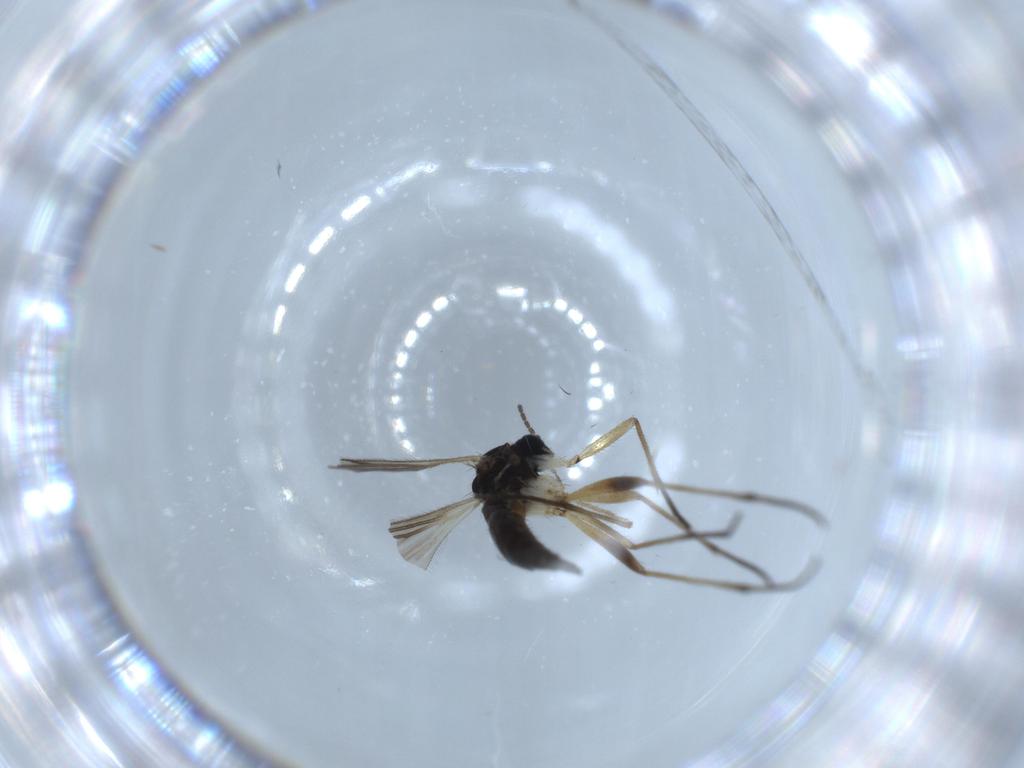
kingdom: Animalia
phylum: Arthropoda
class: Insecta
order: Diptera
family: Sciaridae
